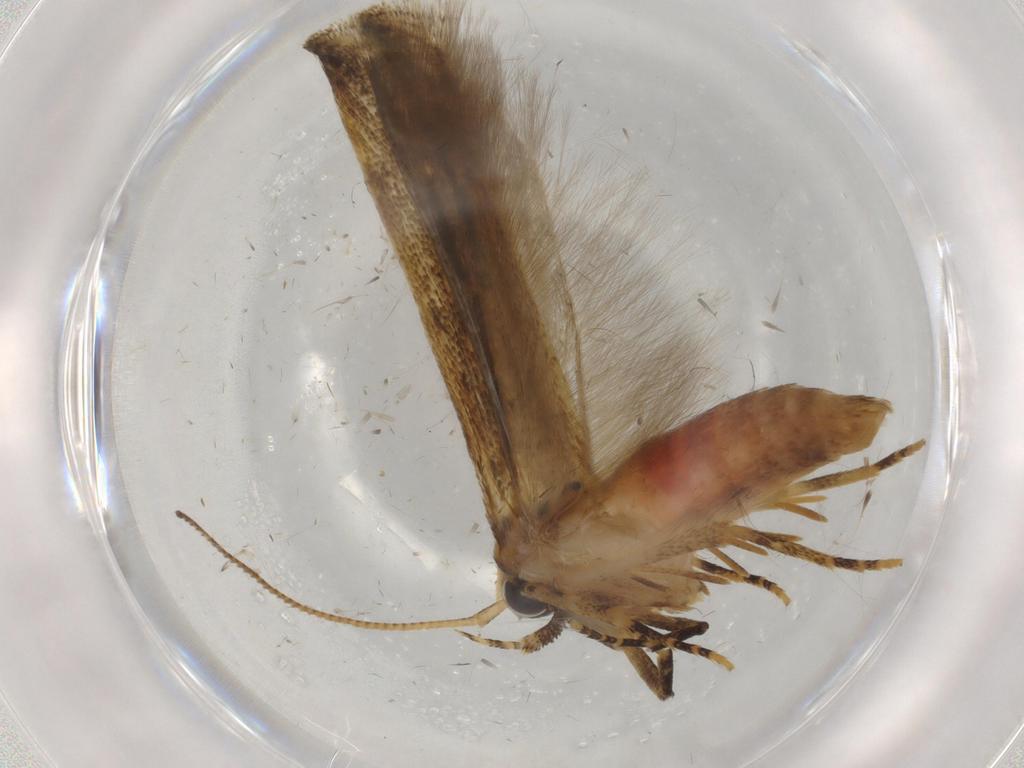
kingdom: Animalia
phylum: Arthropoda
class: Insecta
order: Lepidoptera
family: Gelechiidae
